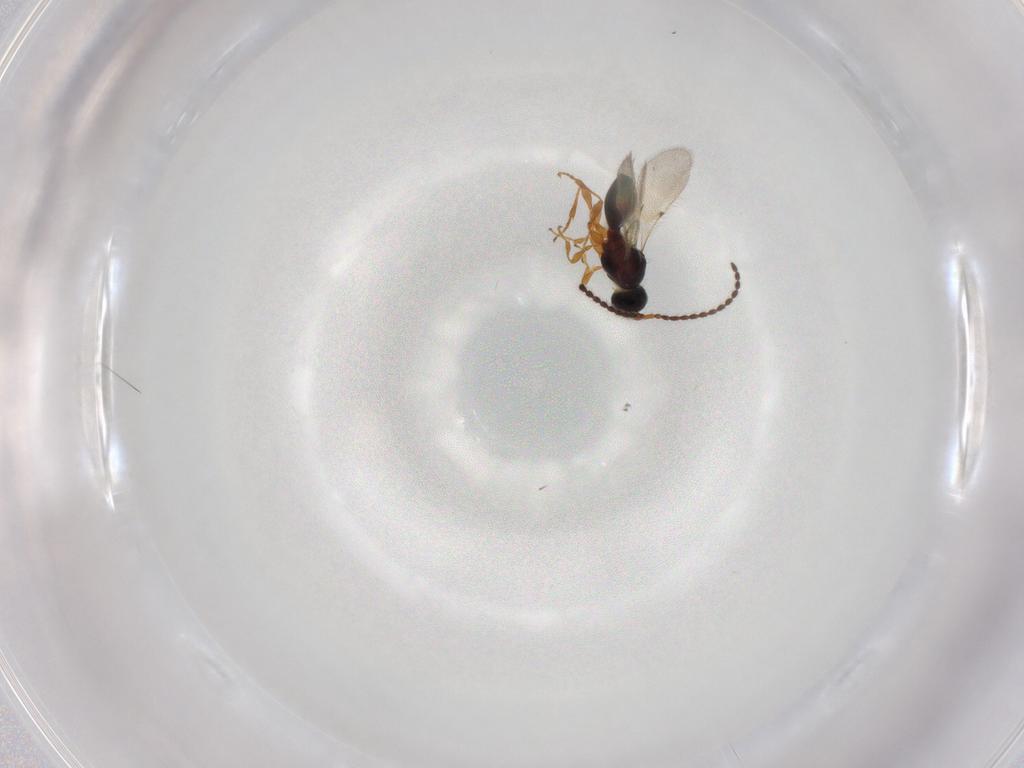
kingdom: Animalia
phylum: Arthropoda
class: Insecta
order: Hymenoptera
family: Diapriidae
